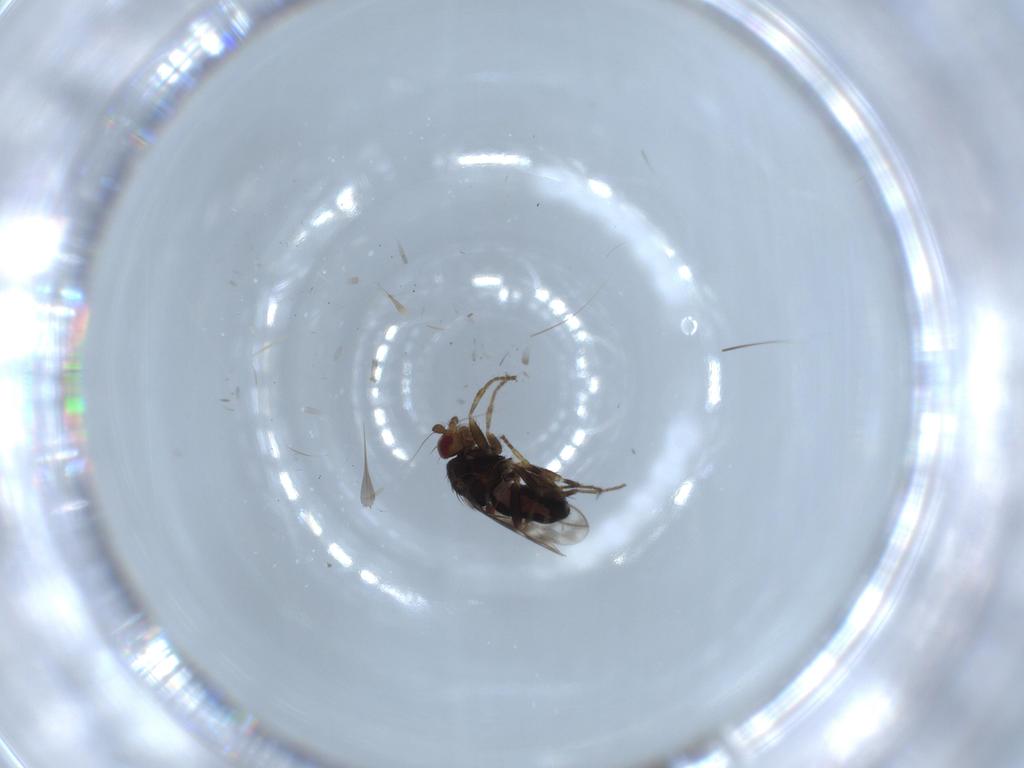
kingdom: Animalia
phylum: Arthropoda
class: Insecta
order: Diptera
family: Sphaeroceridae
